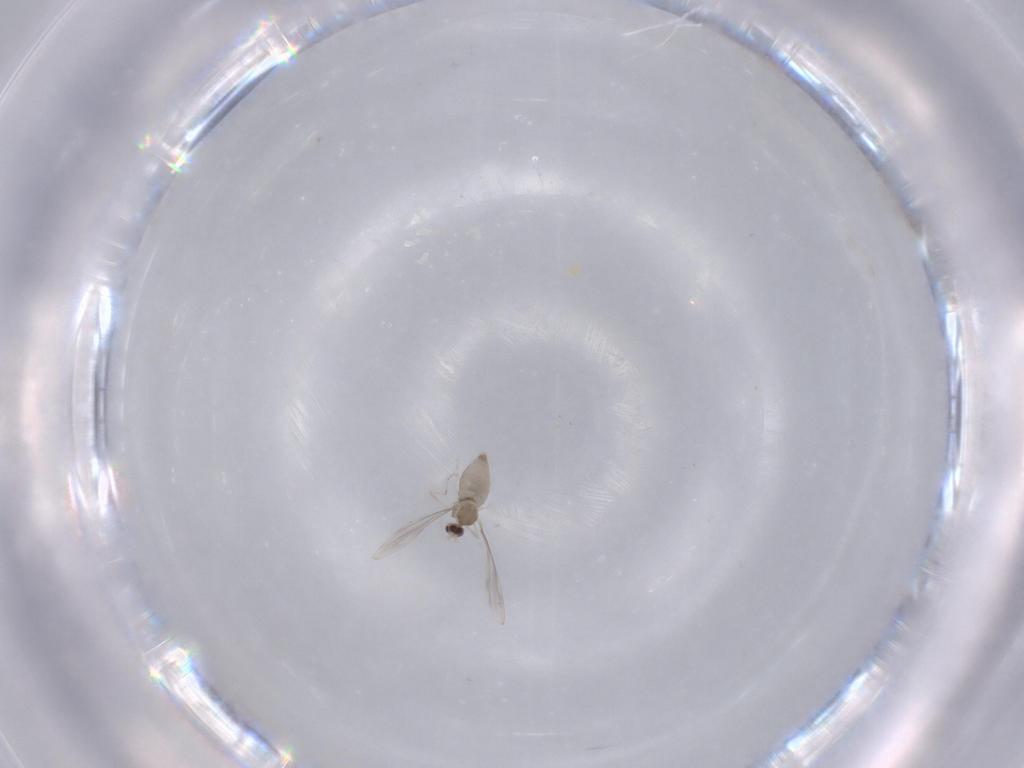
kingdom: Animalia
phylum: Arthropoda
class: Insecta
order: Diptera
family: Cecidomyiidae
